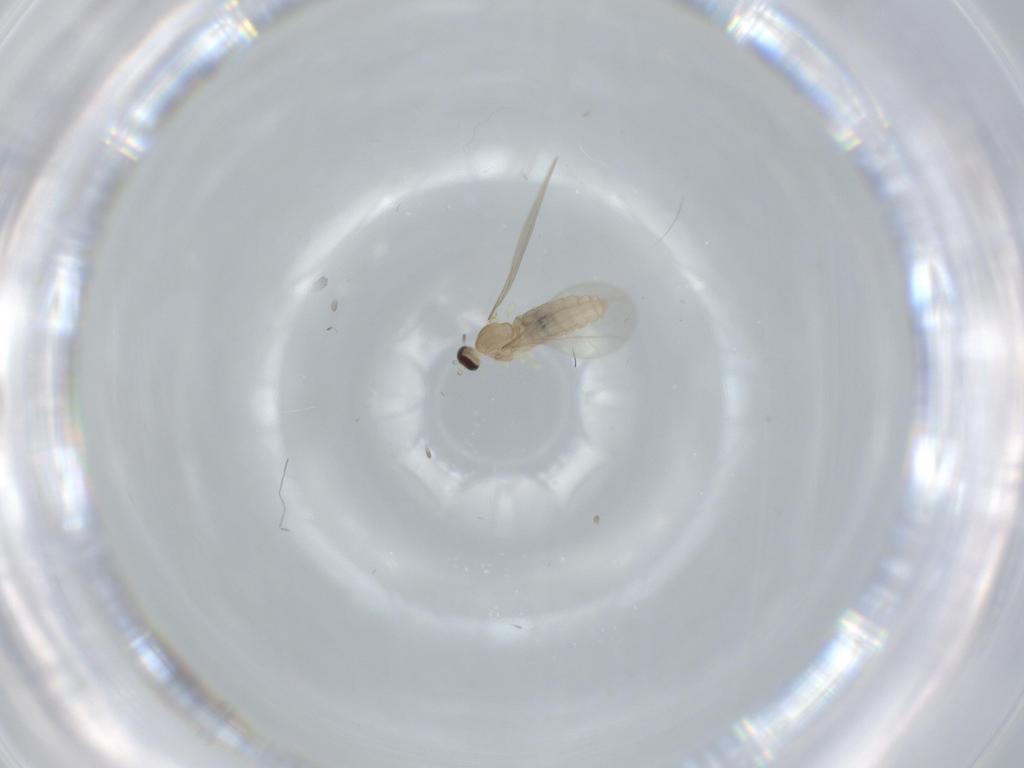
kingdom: Animalia
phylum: Arthropoda
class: Insecta
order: Diptera
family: Cecidomyiidae
